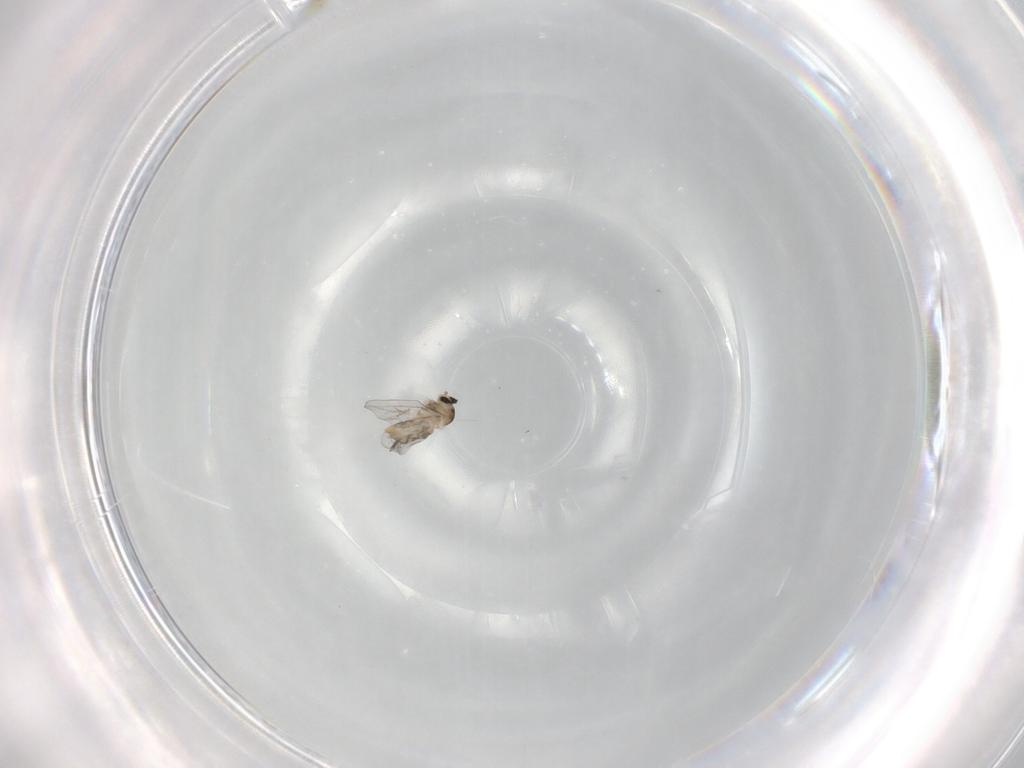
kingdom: Animalia
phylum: Arthropoda
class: Insecta
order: Diptera
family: Cecidomyiidae
